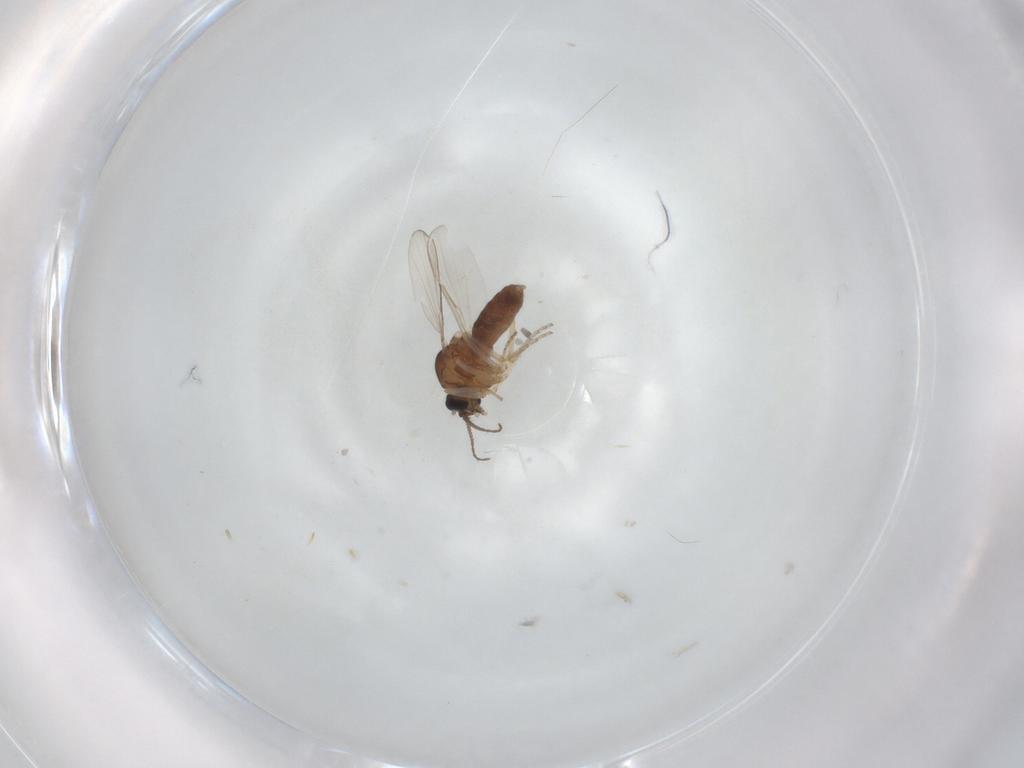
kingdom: Animalia
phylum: Arthropoda
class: Insecta
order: Diptera
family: Ceratopogonidae
